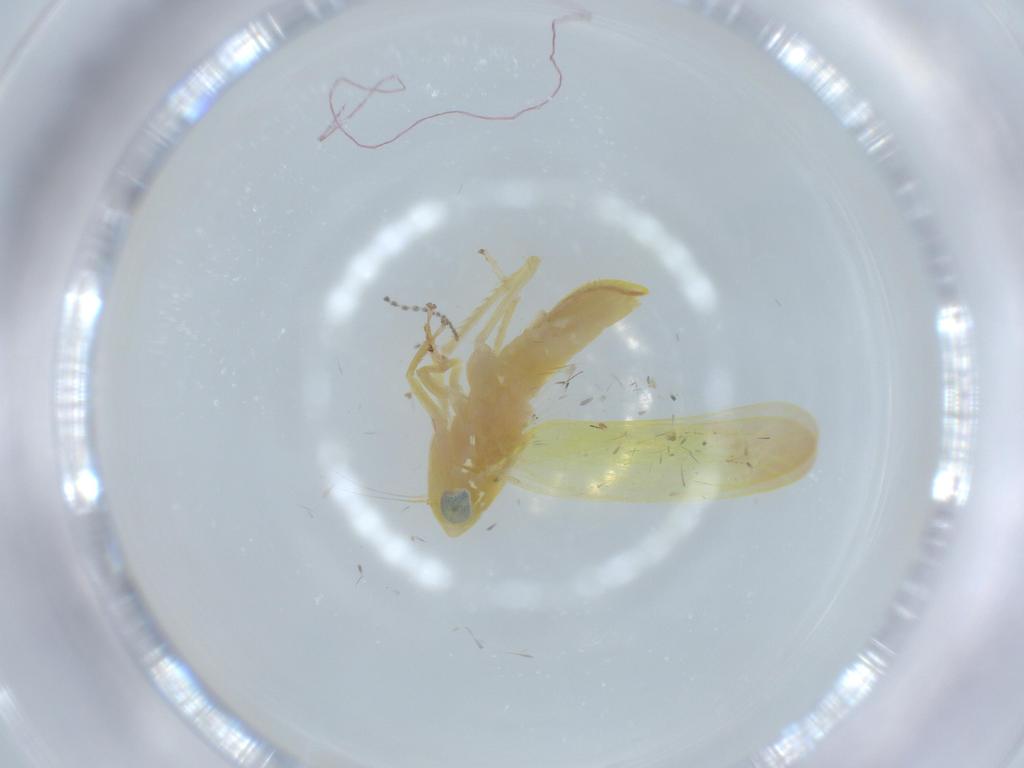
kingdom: Animalia
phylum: Arthropoda
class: Insecta
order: Hemiptera
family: Cicadellidae
